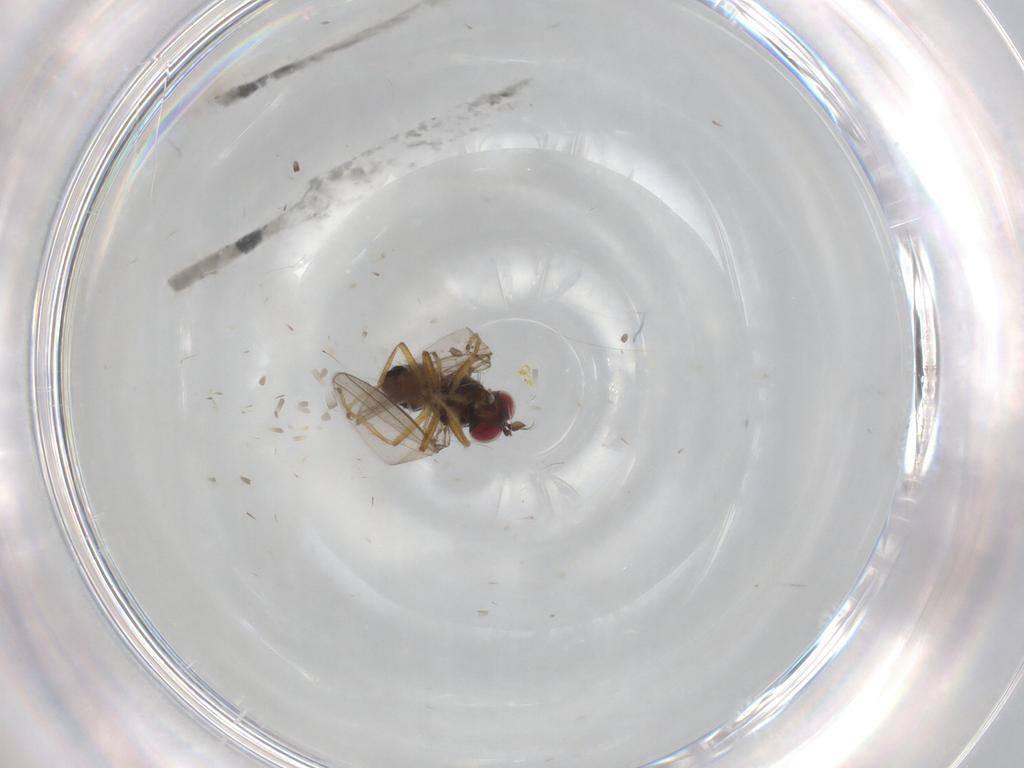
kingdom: Animalia
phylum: Arthropoda
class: Insecta
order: Diptera
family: Ephydridae
